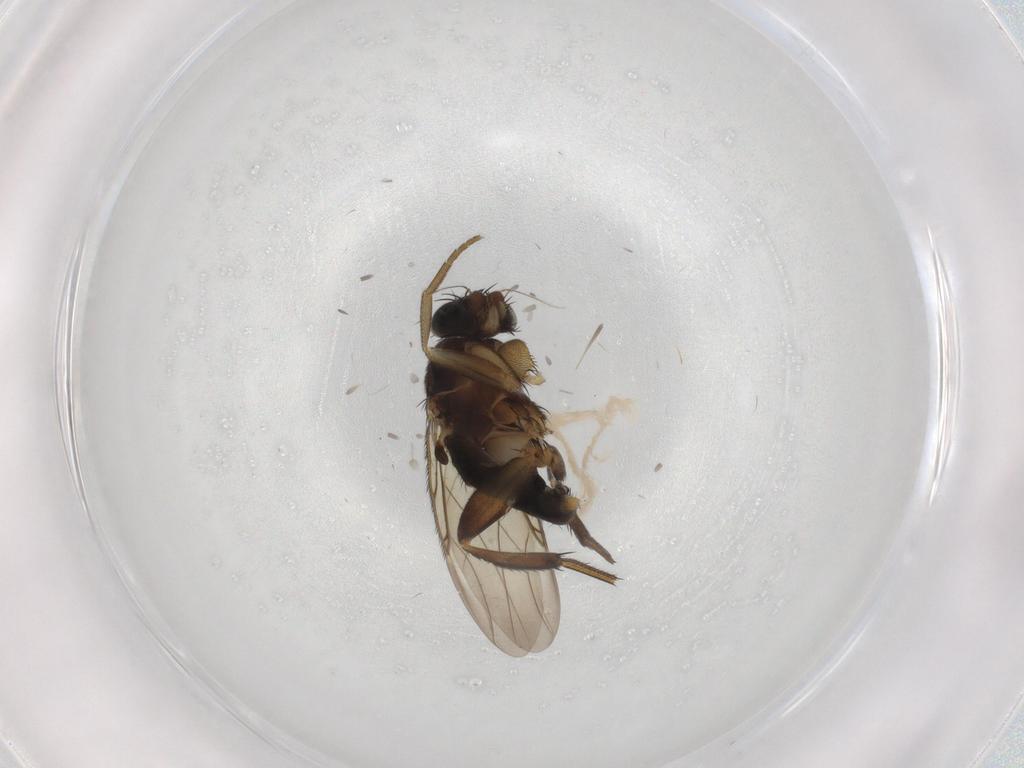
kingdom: Animalia
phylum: Arthropoda
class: Insecta
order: Diptera
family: Phoridae
